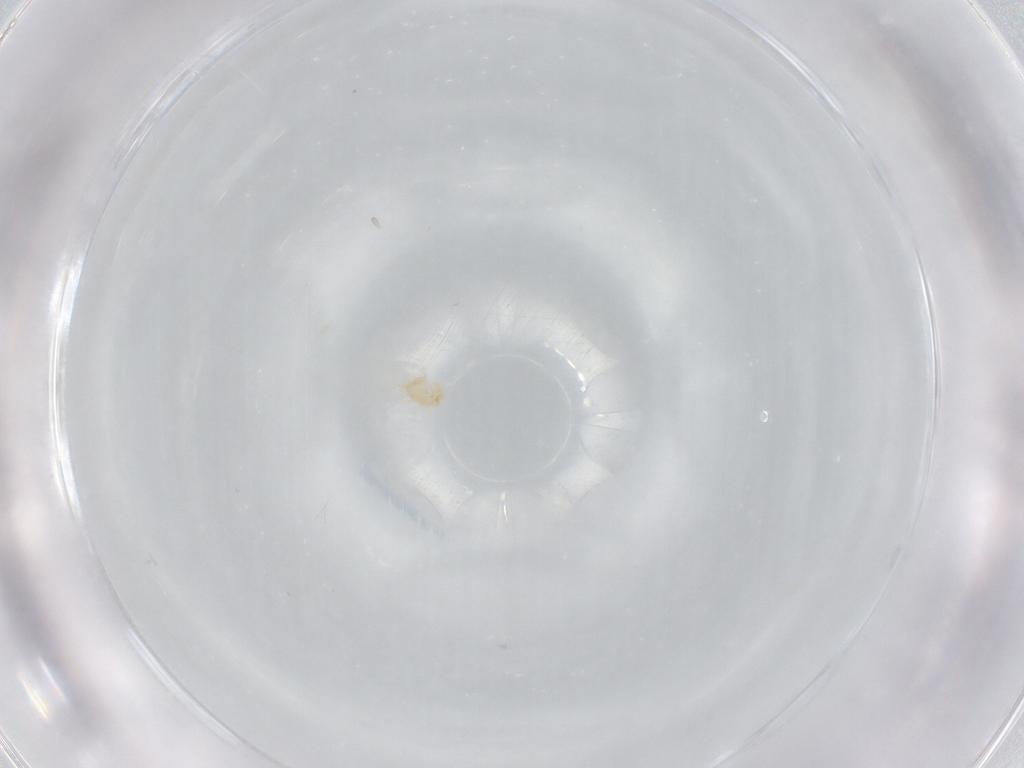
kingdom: Animalia
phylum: Arthropoda
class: Arachnida
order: Mesostigmata
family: Phytoseiidae
